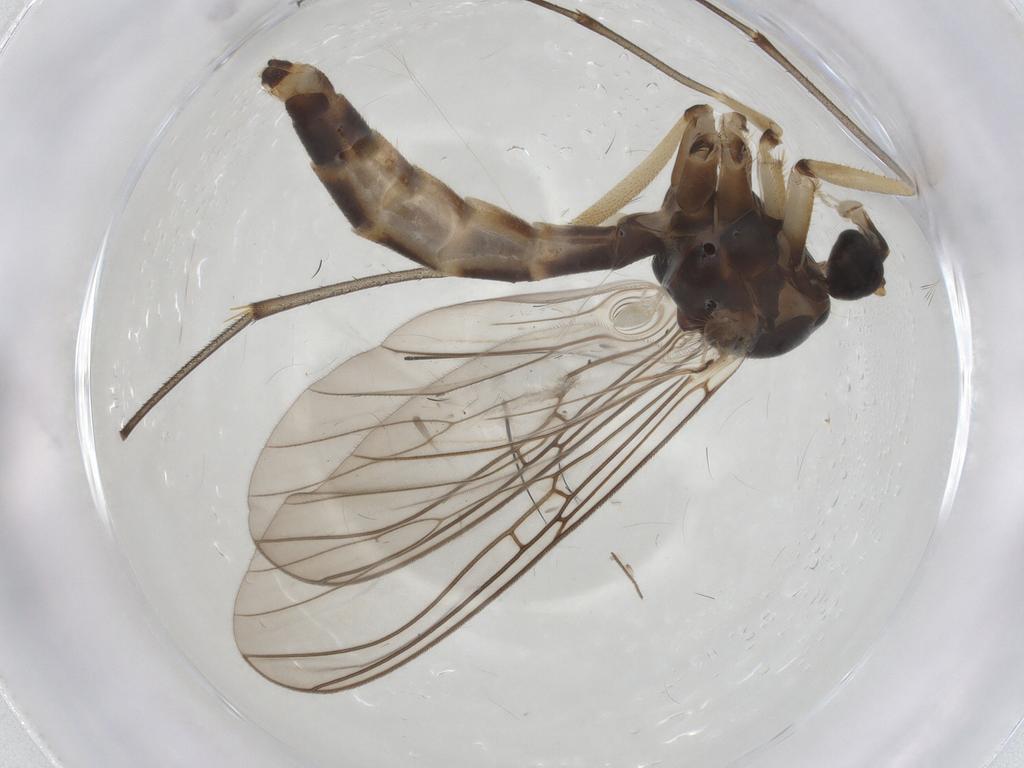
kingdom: Animalia
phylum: Arthropoda
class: Insecta
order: Diptera
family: Mycetophilidae
